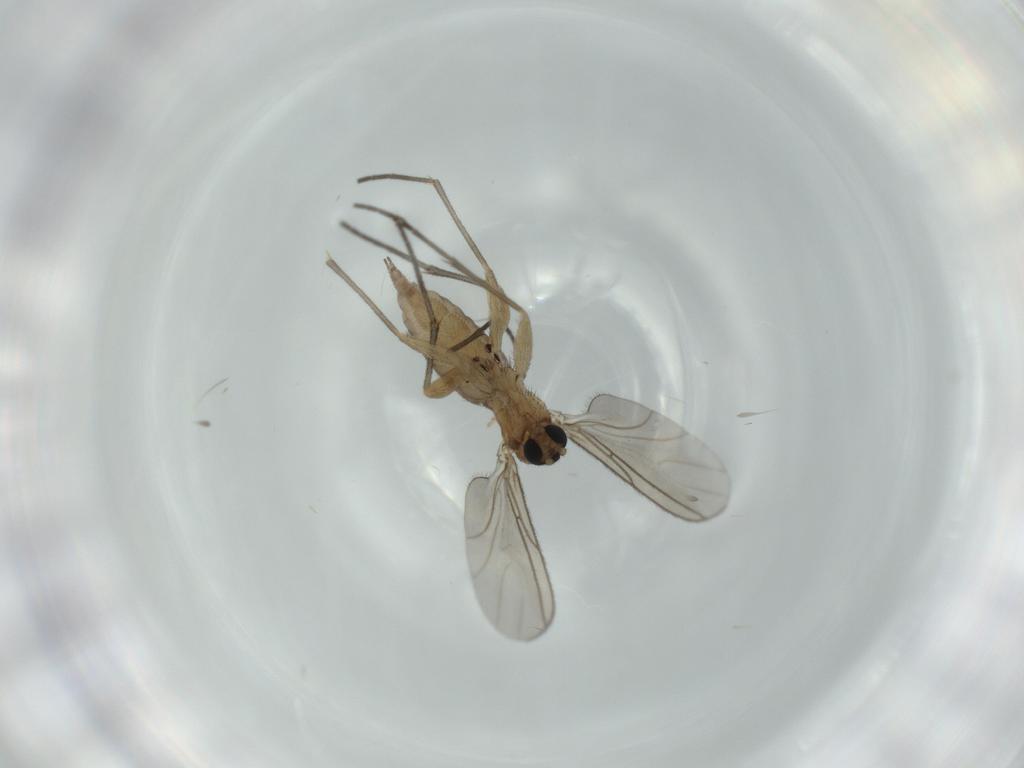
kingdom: Animalia
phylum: Arthropoda
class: Insecta
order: Diptera
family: Sciaridae
